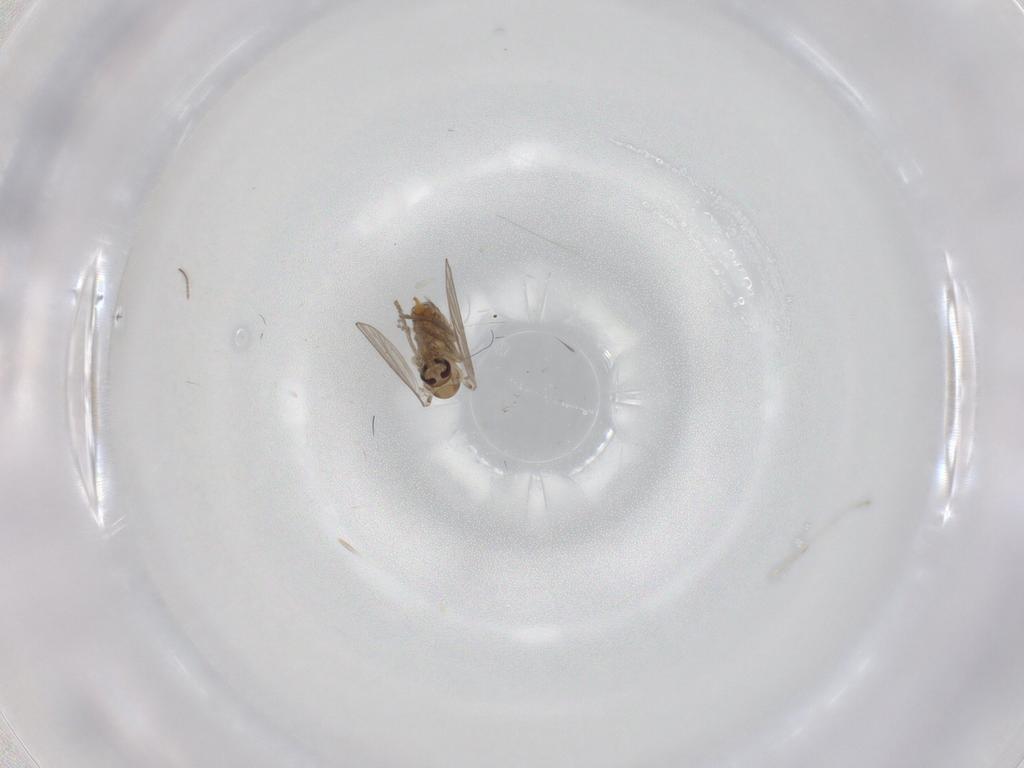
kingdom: Animalia
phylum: Arthropoda
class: Insecta
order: Diptera
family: Psychodidae
